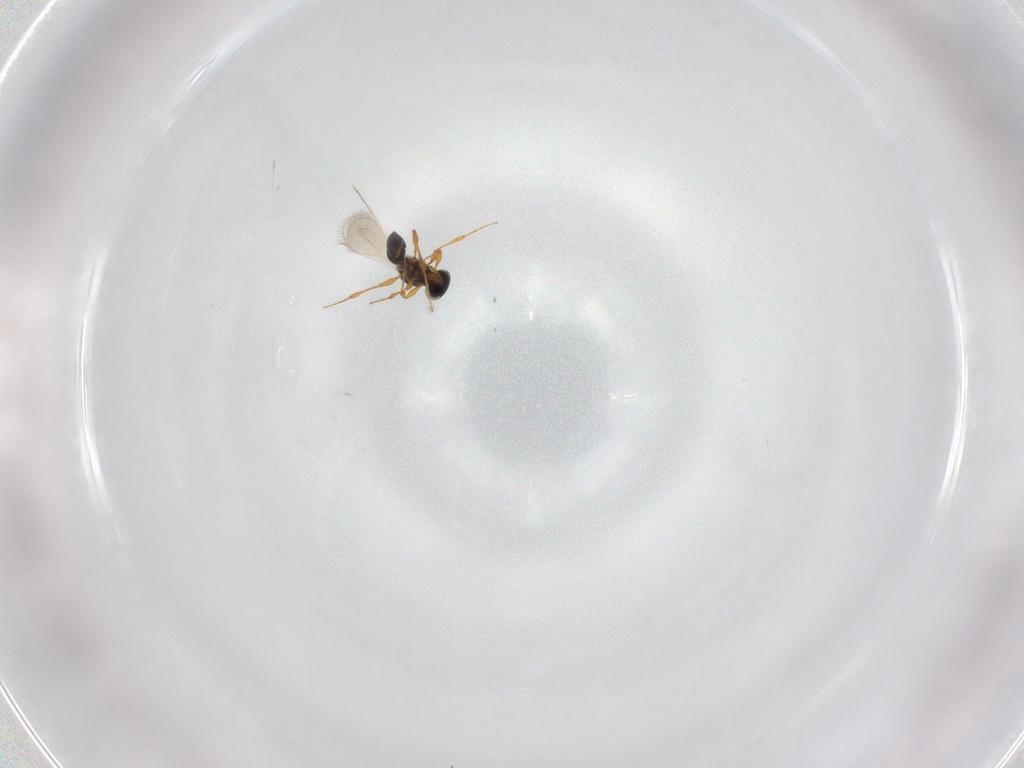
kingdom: Animalia
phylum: Arthropoda
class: Insecta
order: Hymenoptera
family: Platygastridae
